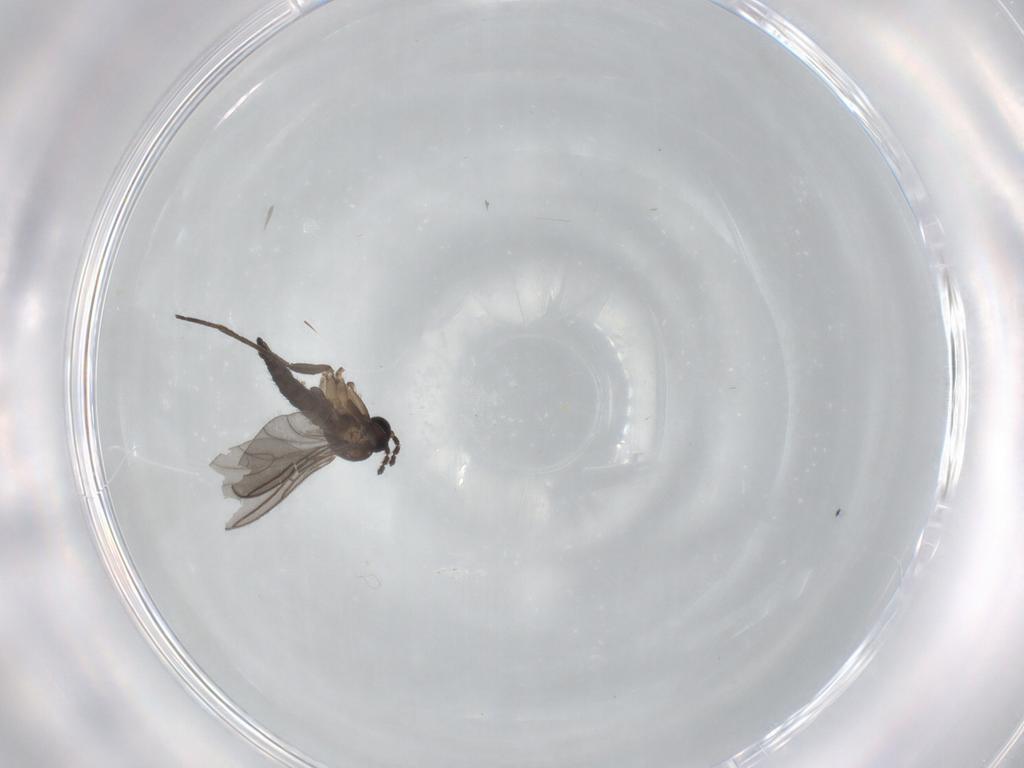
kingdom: Animalia
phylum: Arthropoda
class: Insecta
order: Diptera
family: Sciaridae
